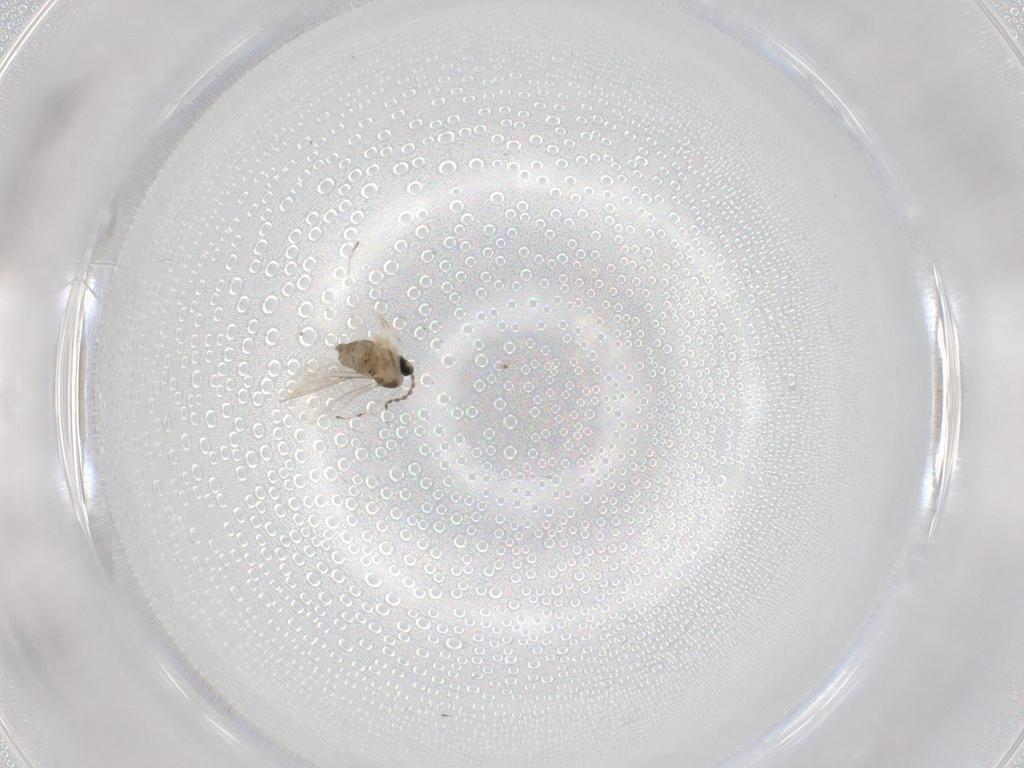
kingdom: Animalia
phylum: Arthropoda
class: Insecta
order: Diptera
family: Cecidomyiidae
